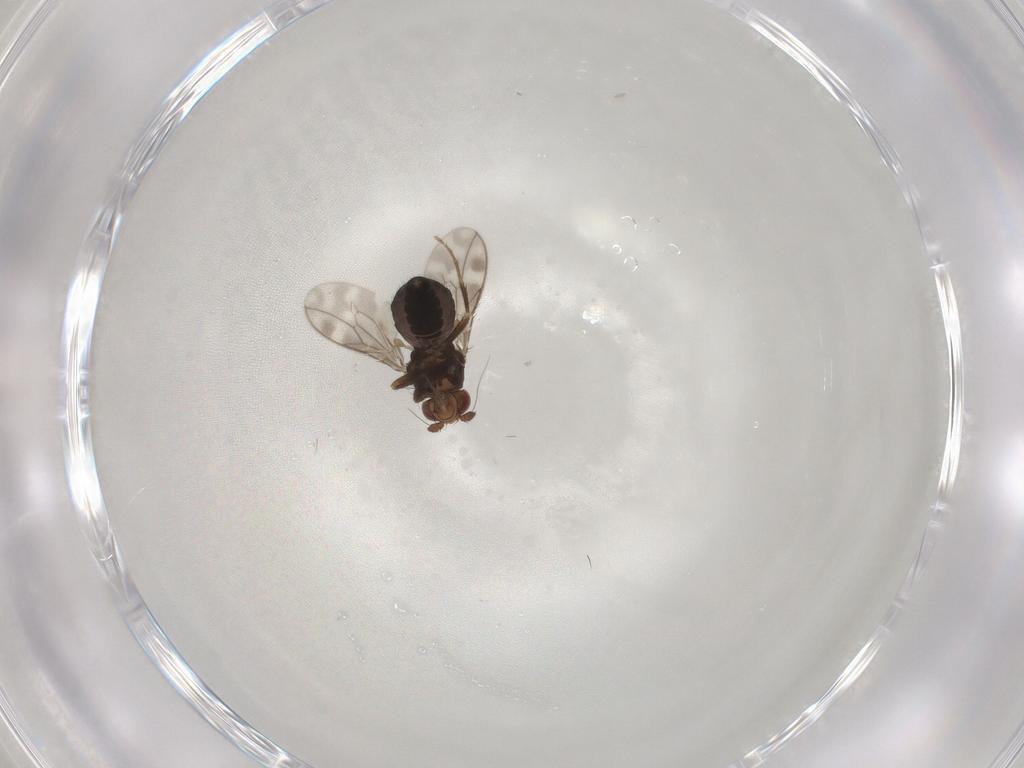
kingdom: Animalia
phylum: Arthropoda
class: Insecta
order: Diptera
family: Sphaeroceridae
